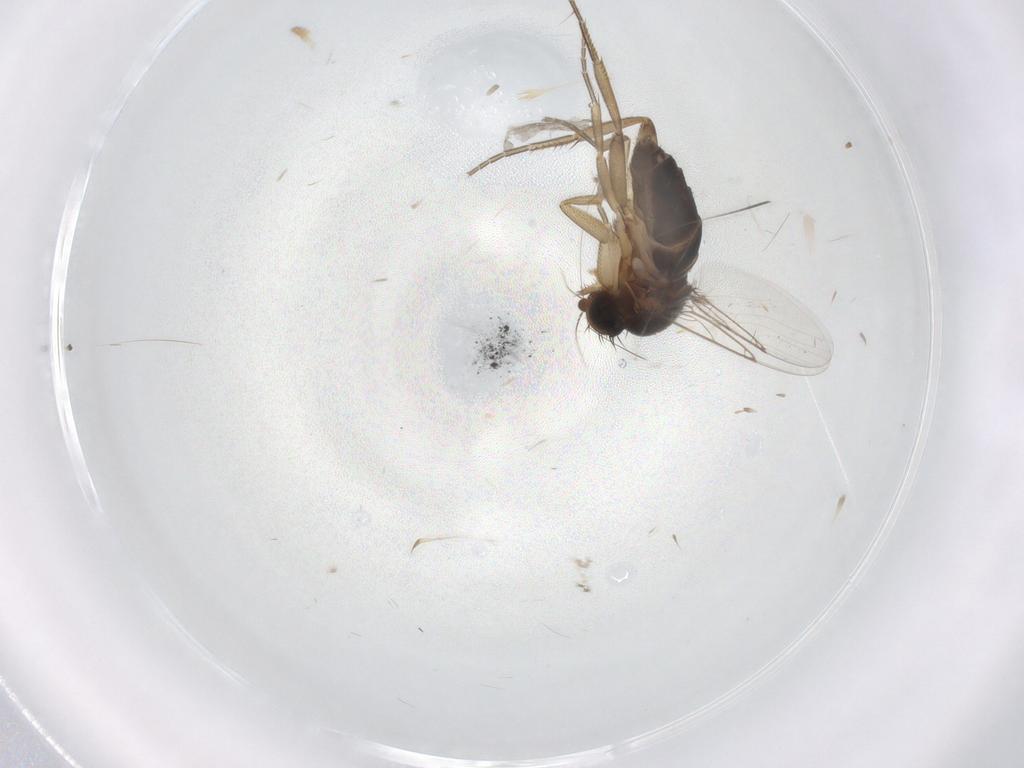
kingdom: Animalia
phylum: Arthropoda
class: Insecta
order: Diptera
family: Phoridae
